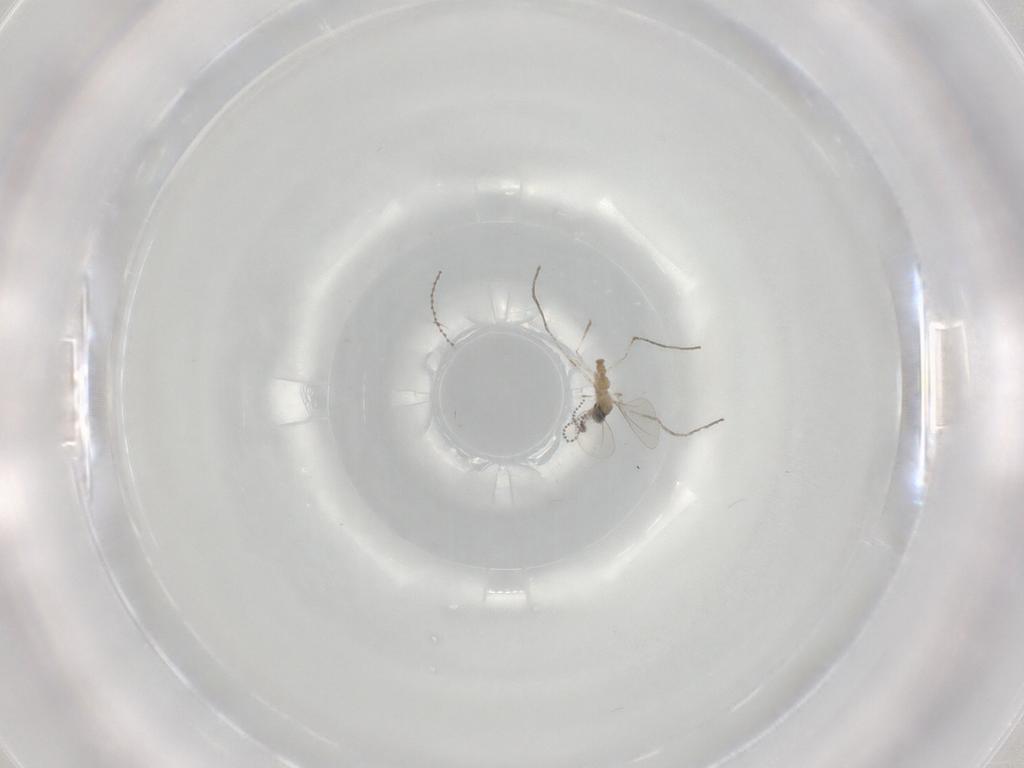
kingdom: Animalia
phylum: Arthropoda
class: Insecta
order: Diptera
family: Cecidomyiidae
